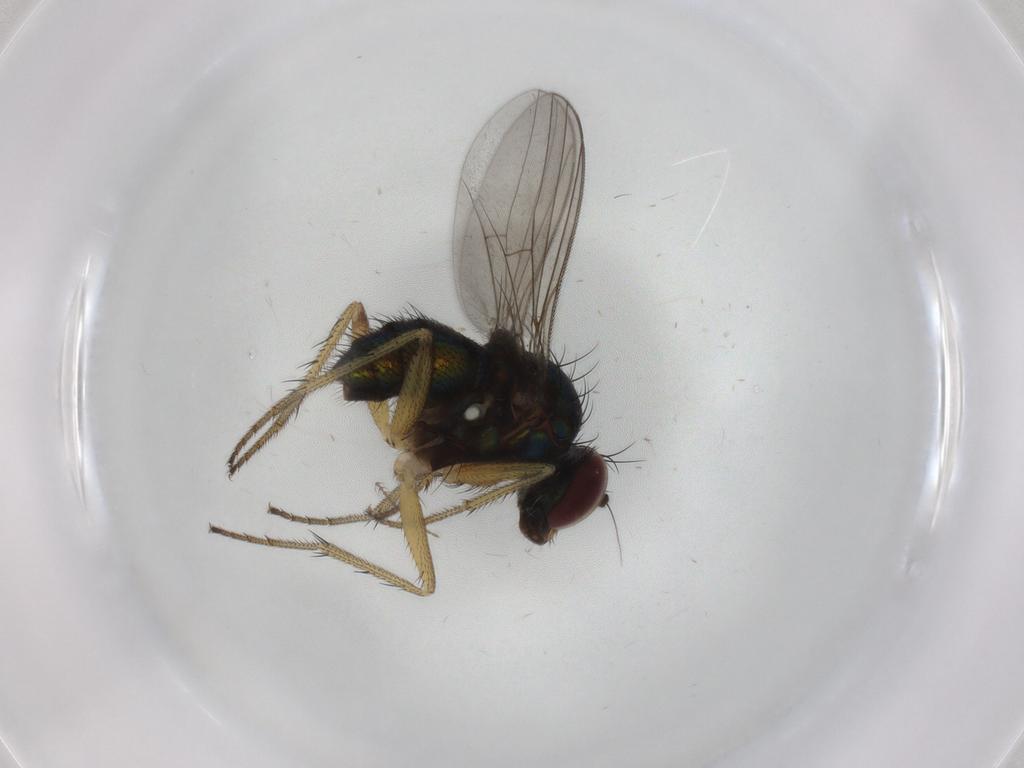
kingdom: Animalia
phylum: Arthropoda
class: Insecta
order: Diptera
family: Dolichopodidae
